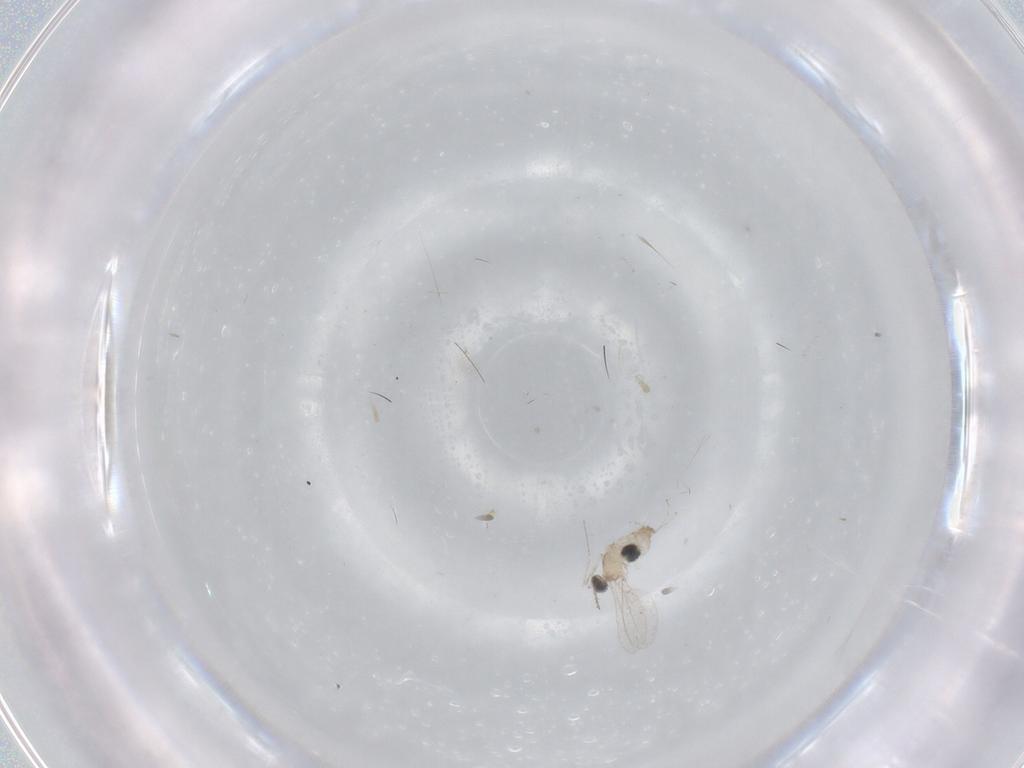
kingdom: Animalia
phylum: Arthropoda
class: Insecta
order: Diptera
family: Cecidomyiidae
